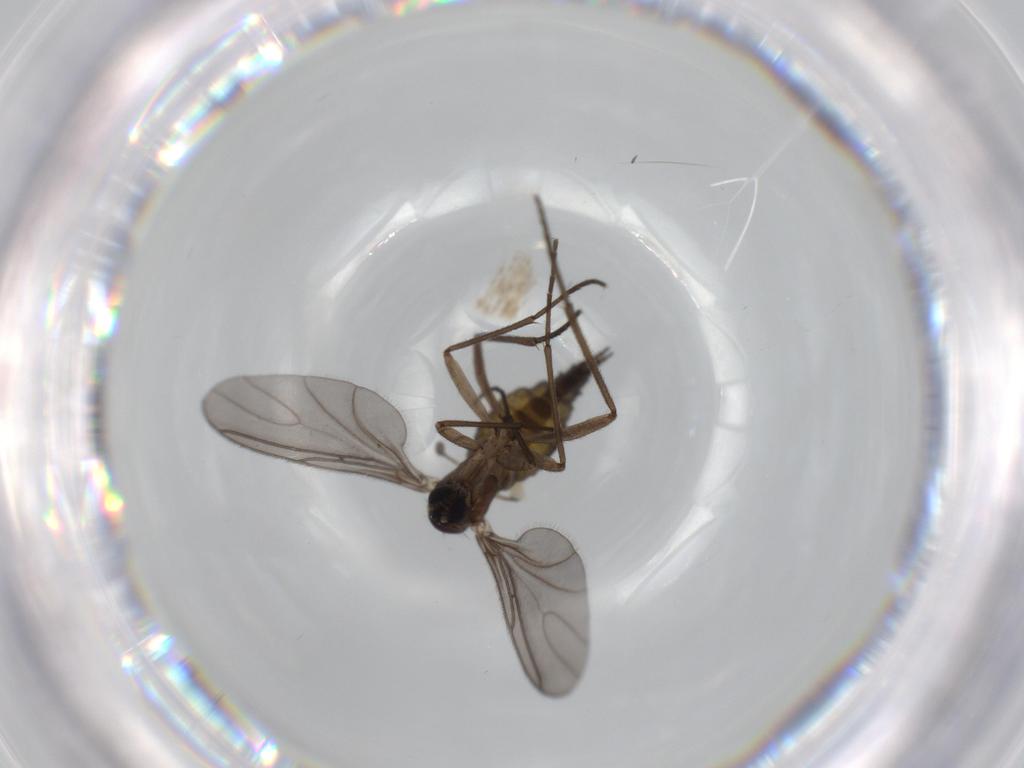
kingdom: Animalia
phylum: Arthropoda
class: Insecta
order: Diptera
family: Sciaridae
